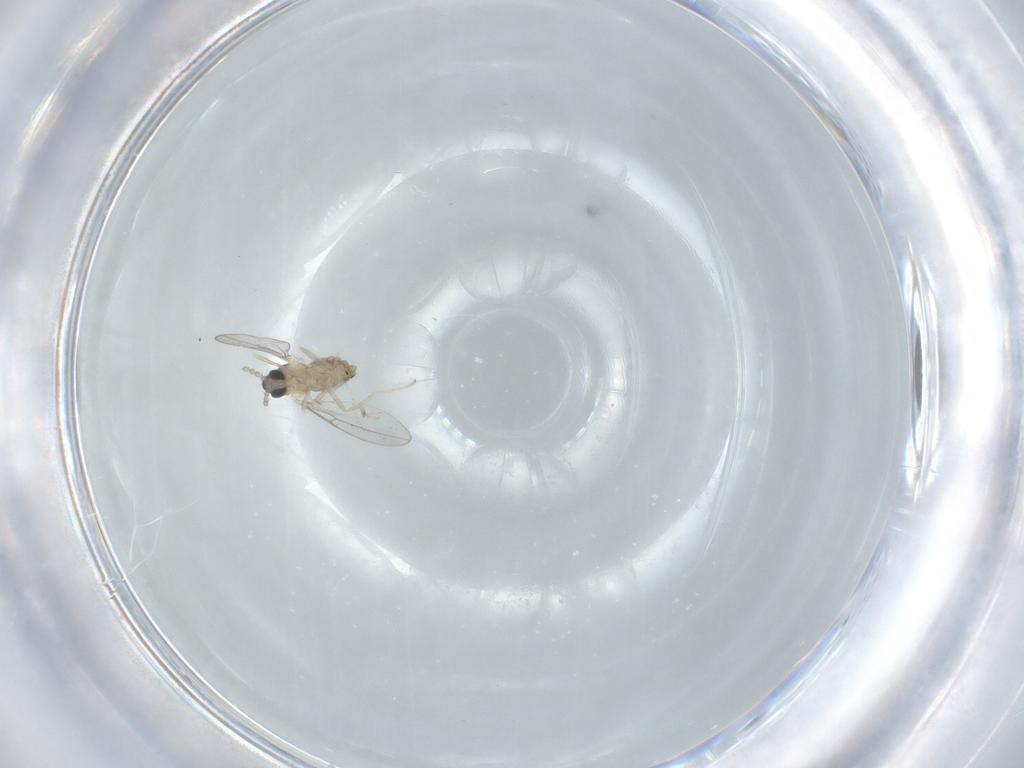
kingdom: Animalia
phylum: Arthropoda
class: Insecta
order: Diptera
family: Cecidomyiidae
